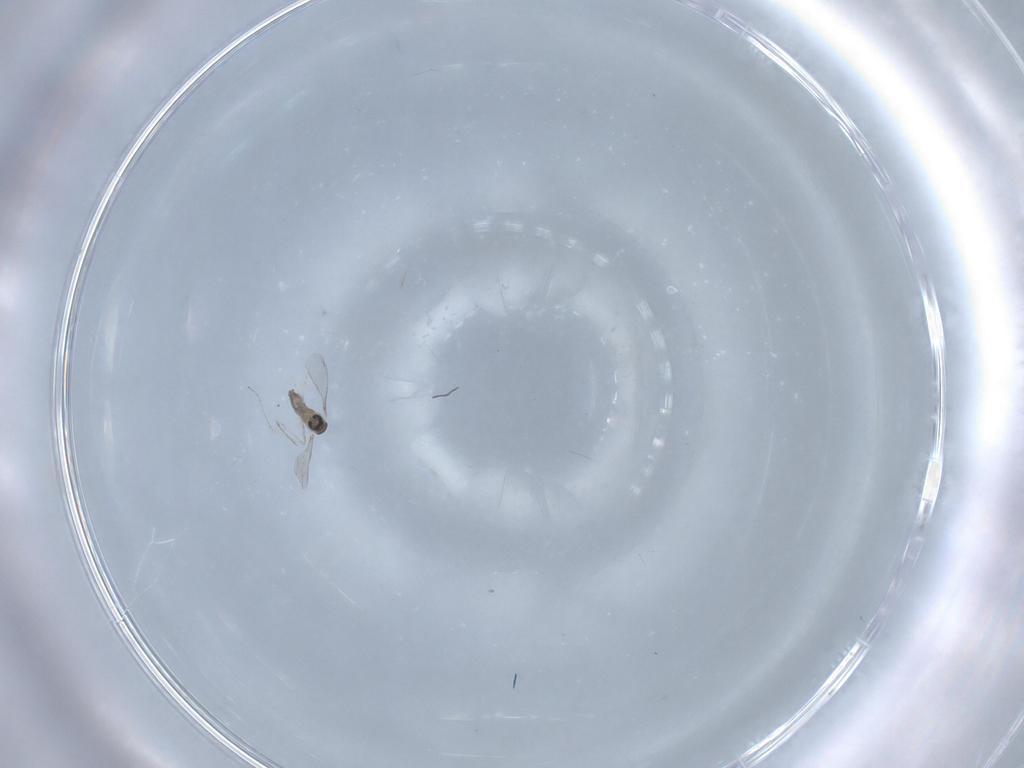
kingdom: Animalia
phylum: Arthropoda
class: Insecta
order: Diptera
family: Cecidomyiidae
